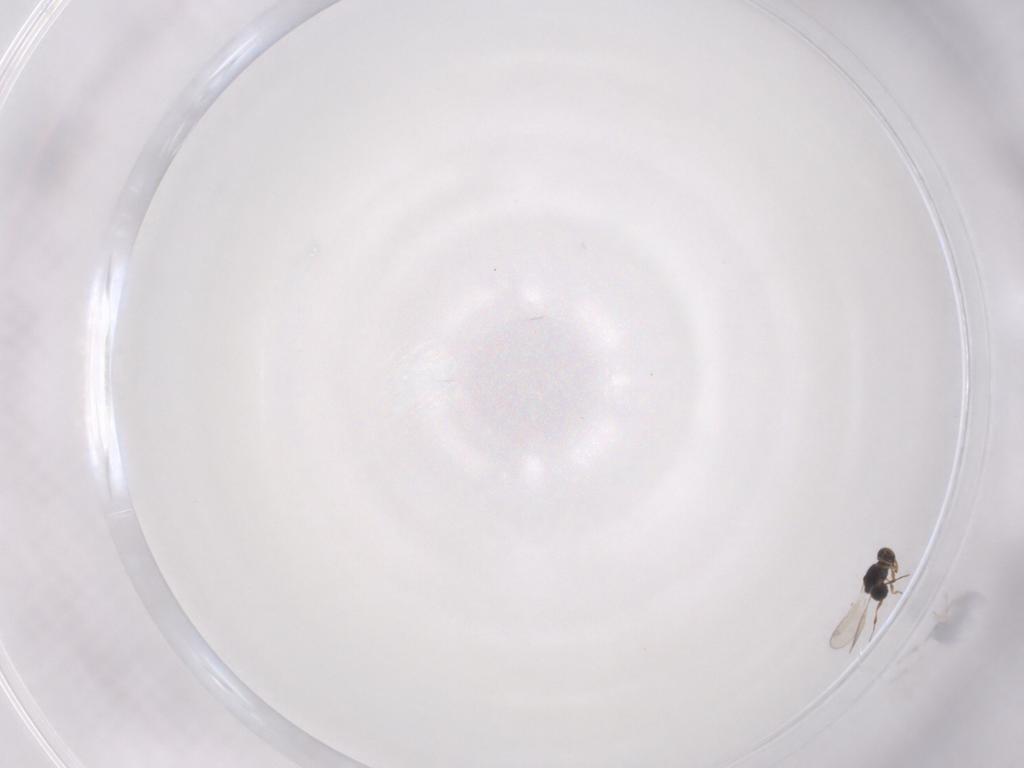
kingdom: Animalia
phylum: Arthropoda
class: Insecta
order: Hymenoptera
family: Platygastridae
